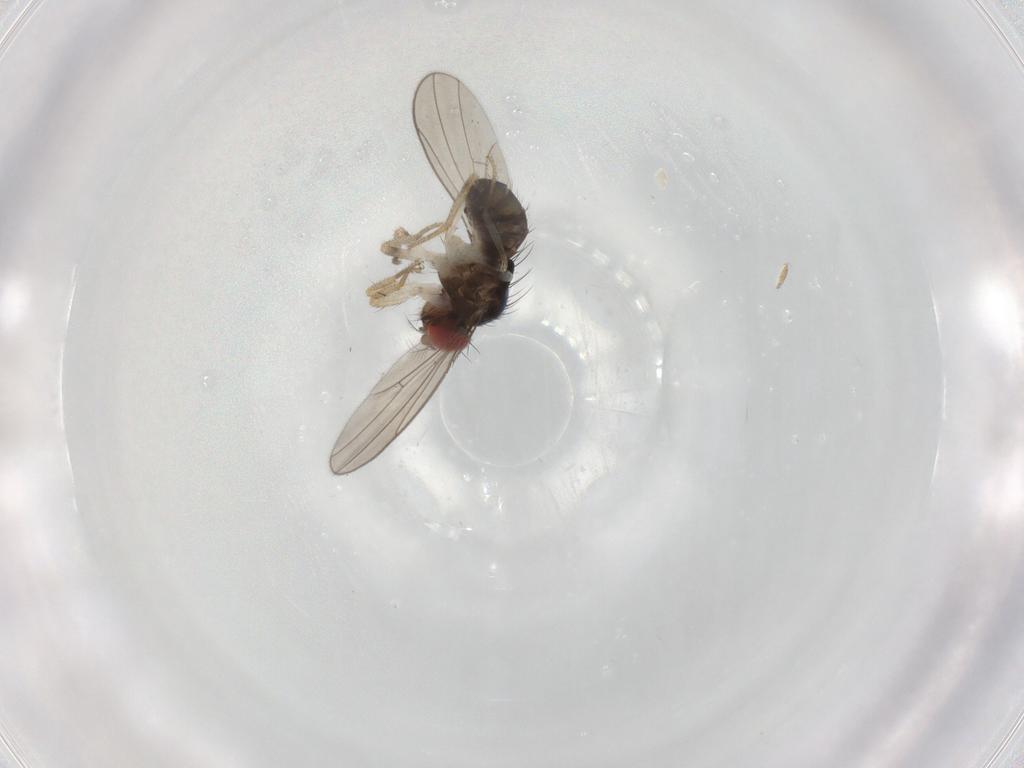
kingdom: Animalia
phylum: Arthropoda
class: Insecta
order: Diptera
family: Drosophilidae
